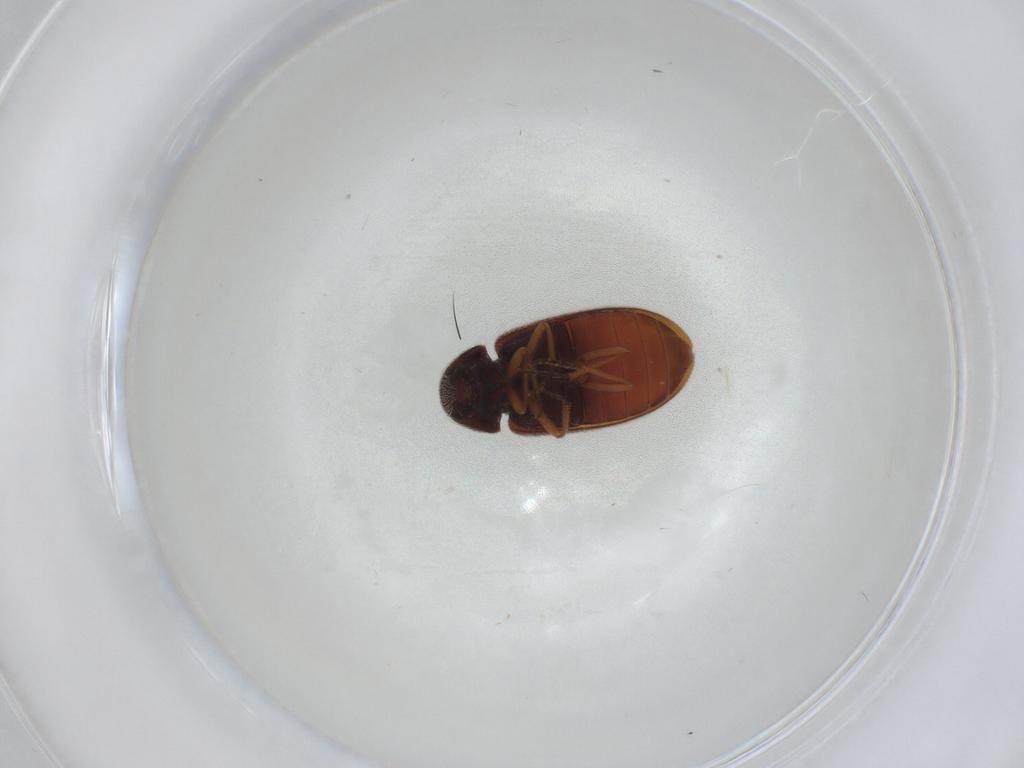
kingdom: Animalia
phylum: Arthropoda
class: Insecta
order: Coleoptera
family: Rhadalidae
